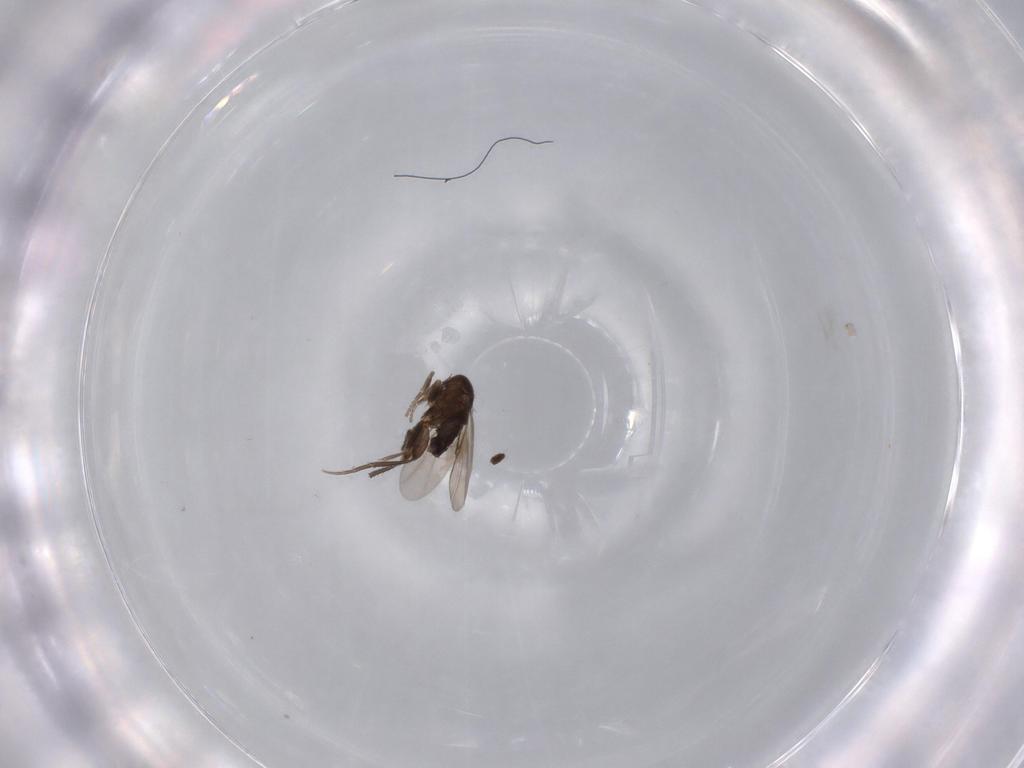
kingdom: Animalia
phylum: Arthropoda
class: Insecta
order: Diptera
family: Phoridae
